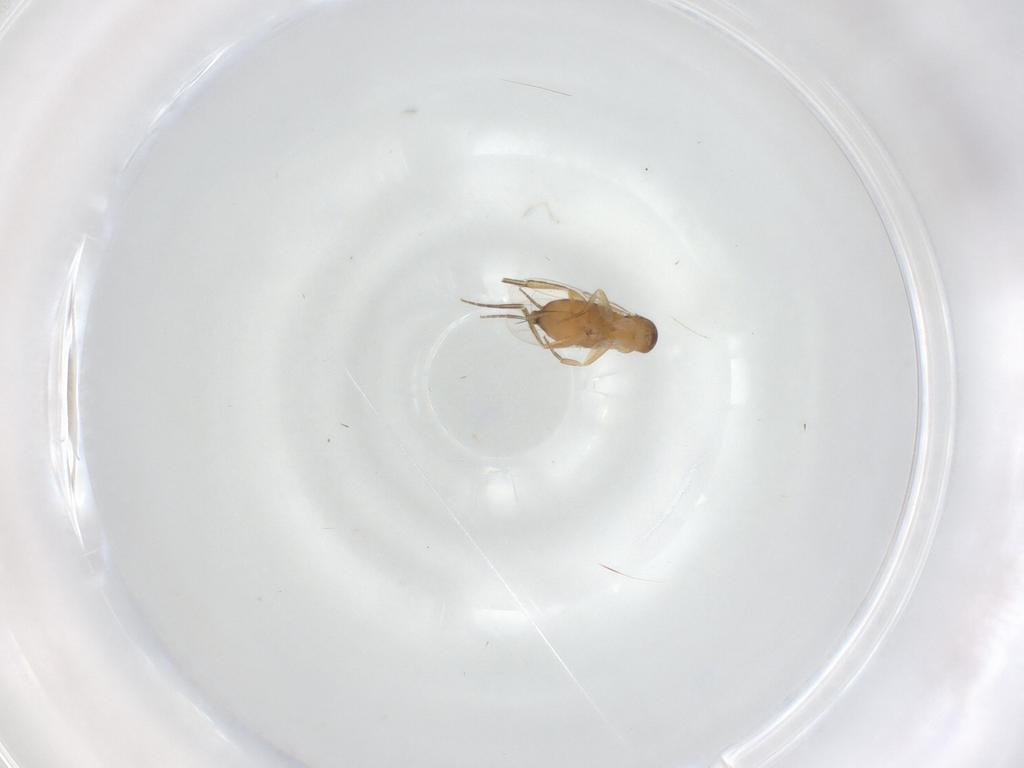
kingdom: Animalia
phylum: Arthropoda
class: Insecta
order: Diptera
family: Phoridae
